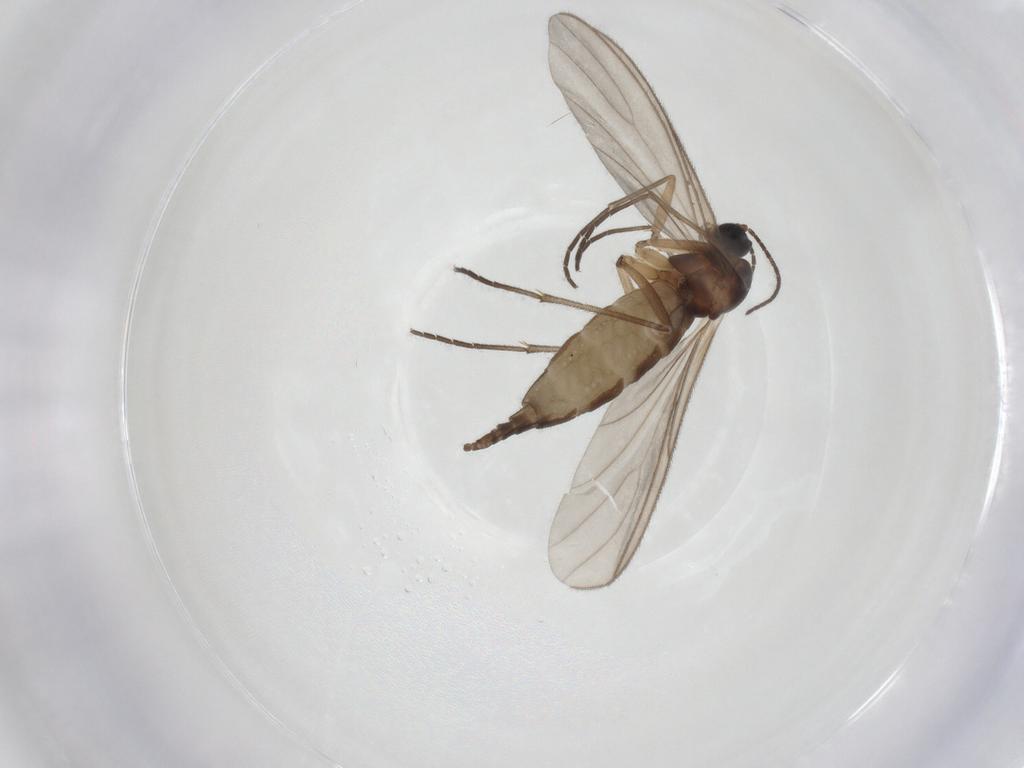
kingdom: Animalia
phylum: Arthropoda
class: Insecta
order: Diptera
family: Sciaridae
